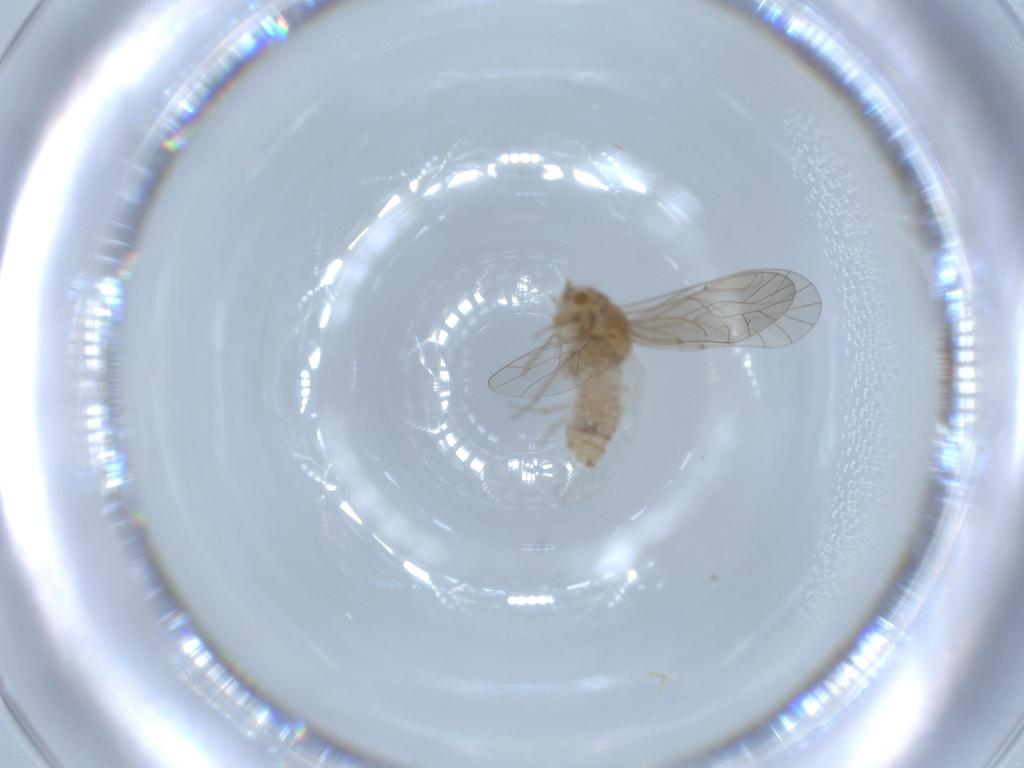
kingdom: Animalia
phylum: Arthropoda
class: Insecta
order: Psocodea
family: Lachesillidae
